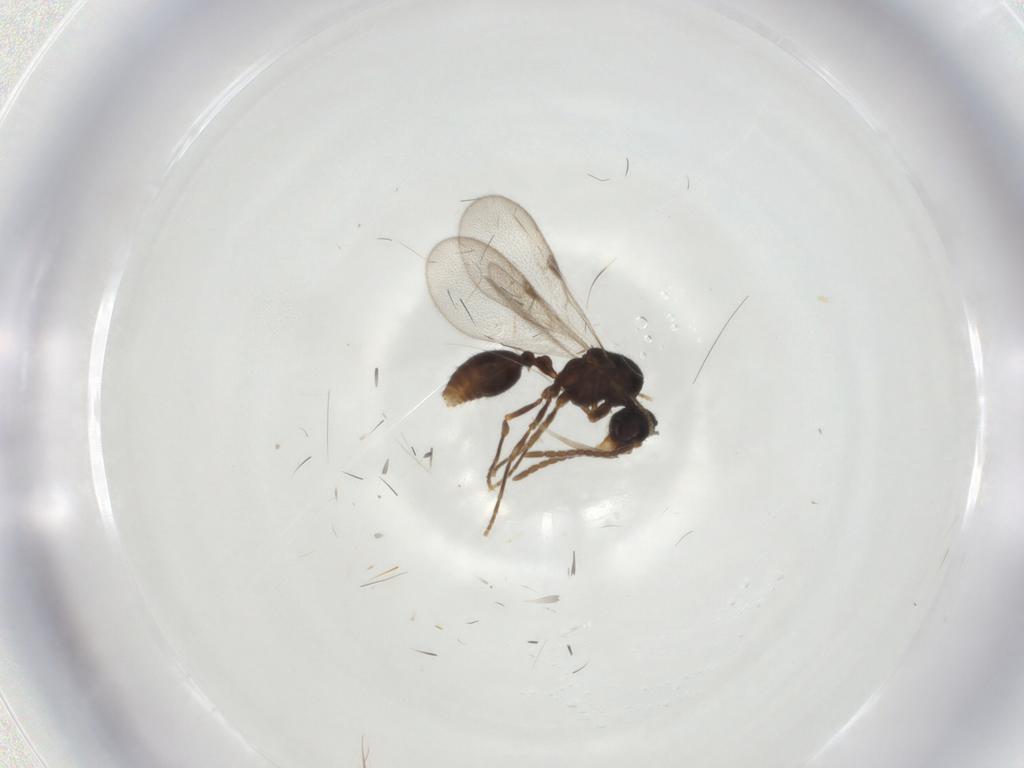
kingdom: Animalia
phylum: Arthropoda
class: Insecta
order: Hymenoptera
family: Formicidae
